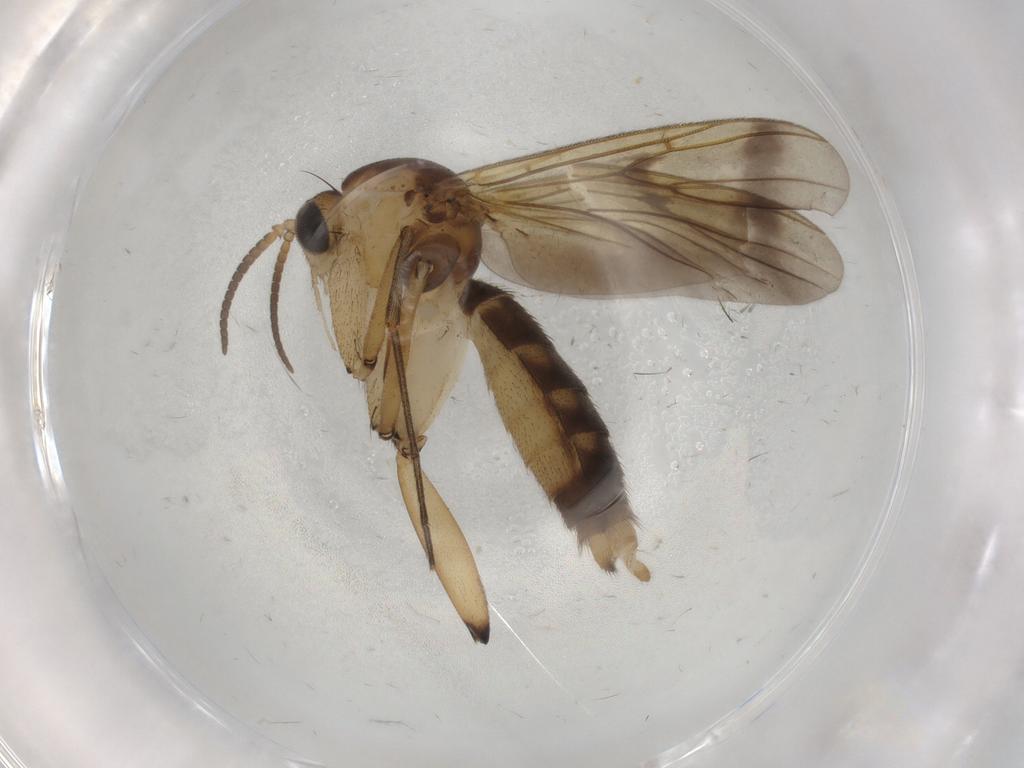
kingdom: Animalia
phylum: Arthropoda
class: Insecta
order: Diptera
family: Mycetophilidae
